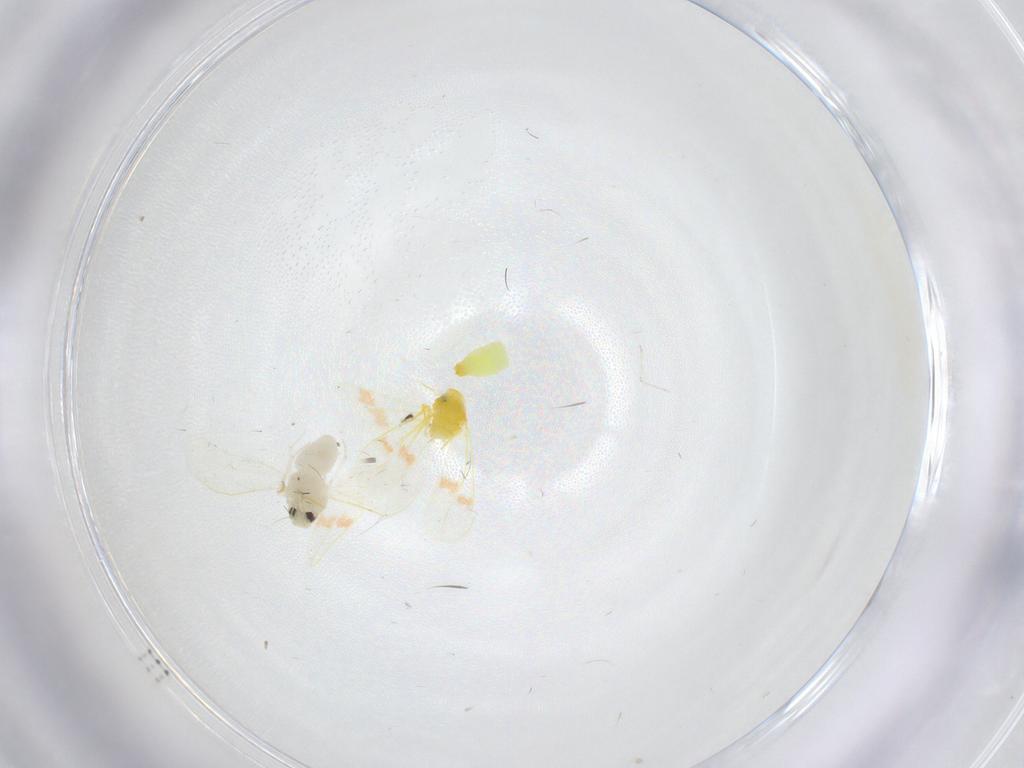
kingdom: Animalia
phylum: Arthropoda
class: Insecta
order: Hemiptera
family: Aleyrodidae
